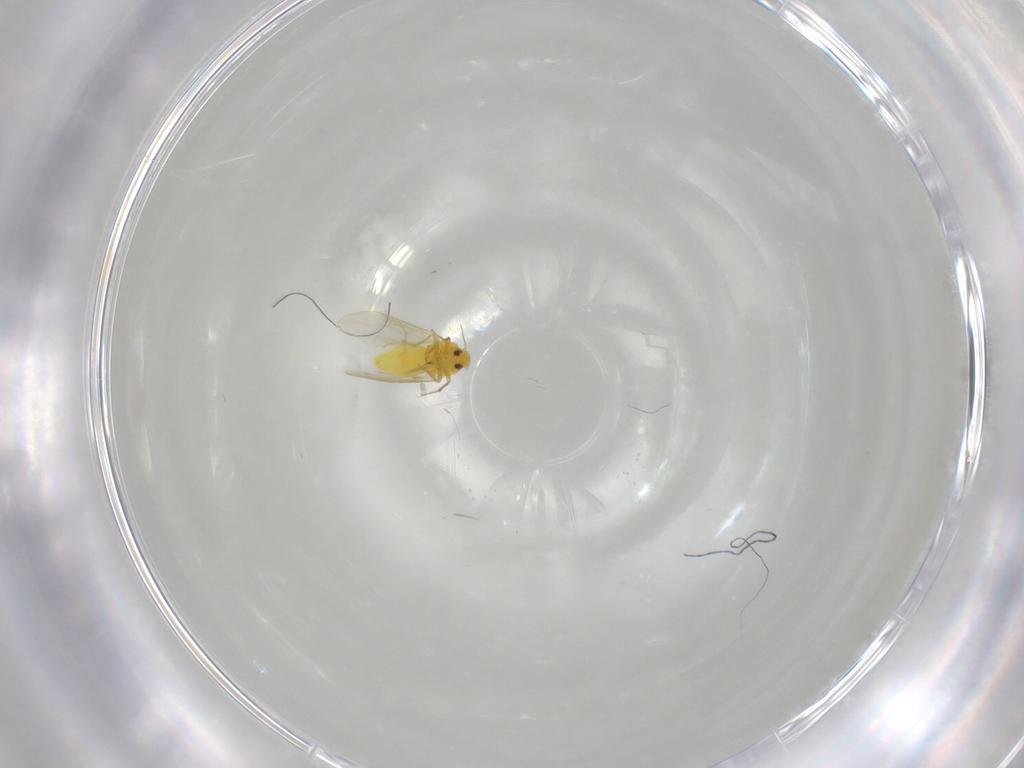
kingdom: Animalia
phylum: Arthropoda
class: Insecta
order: Hemiptera
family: Aleyrodidae
